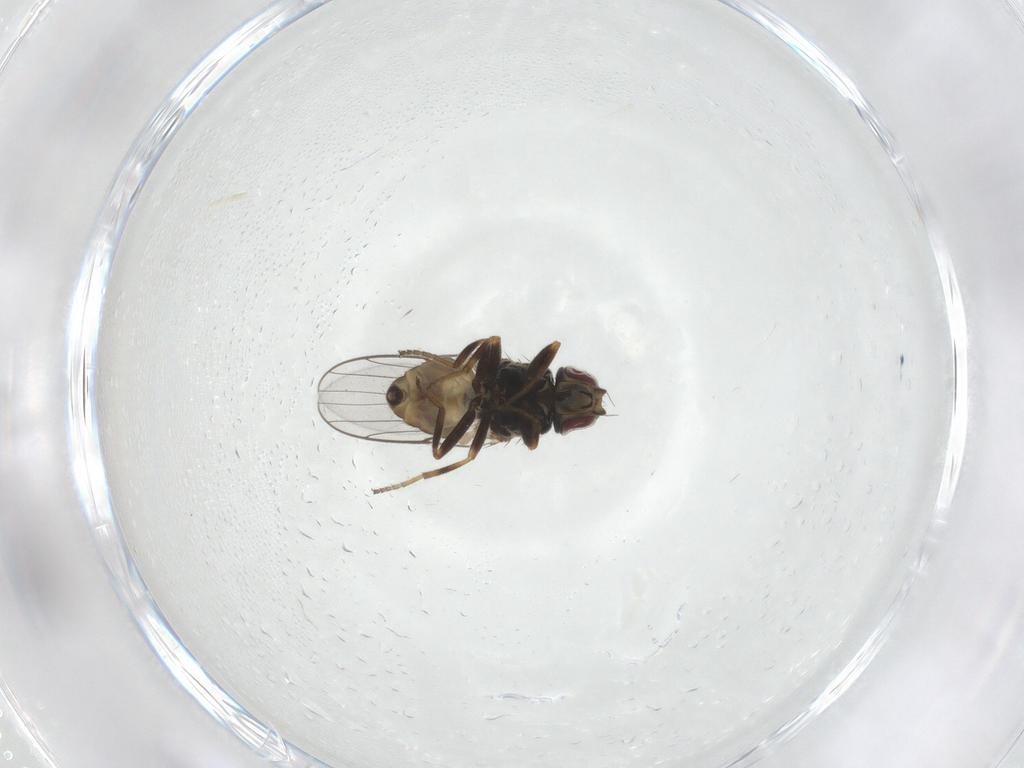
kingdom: Animalia
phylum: Arthropoda
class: Insecta
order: Diptera
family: Chloropidae
